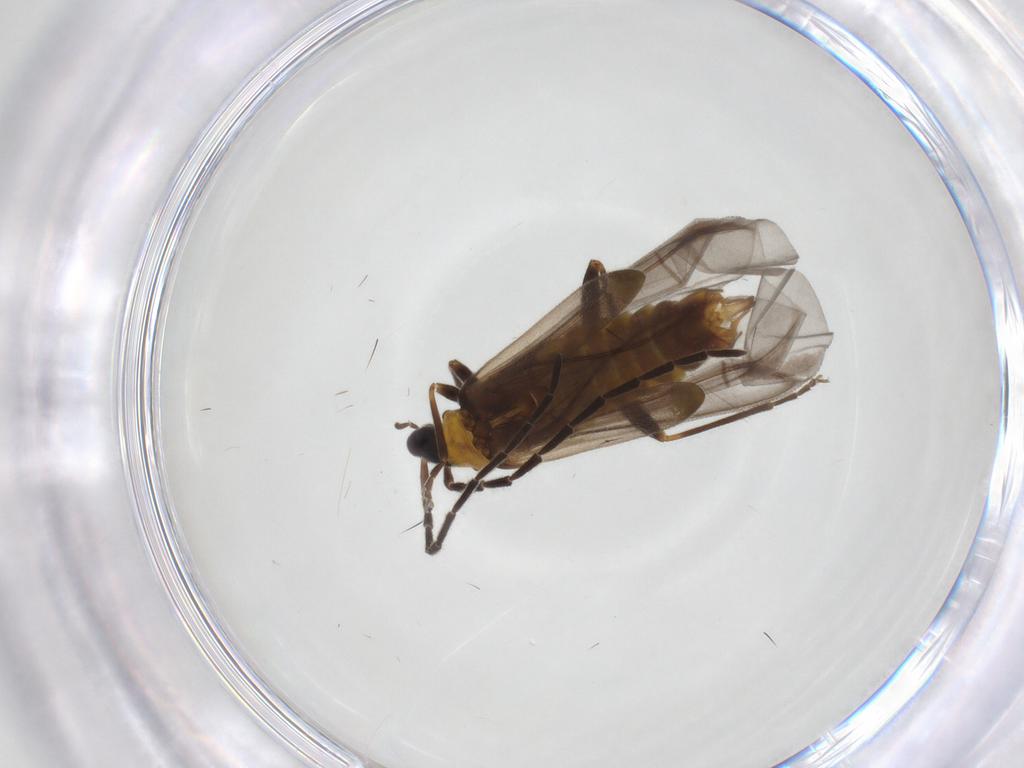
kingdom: Animalia
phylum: Arthropoda
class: Insecta
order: Coleoptera
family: Cantharidae
